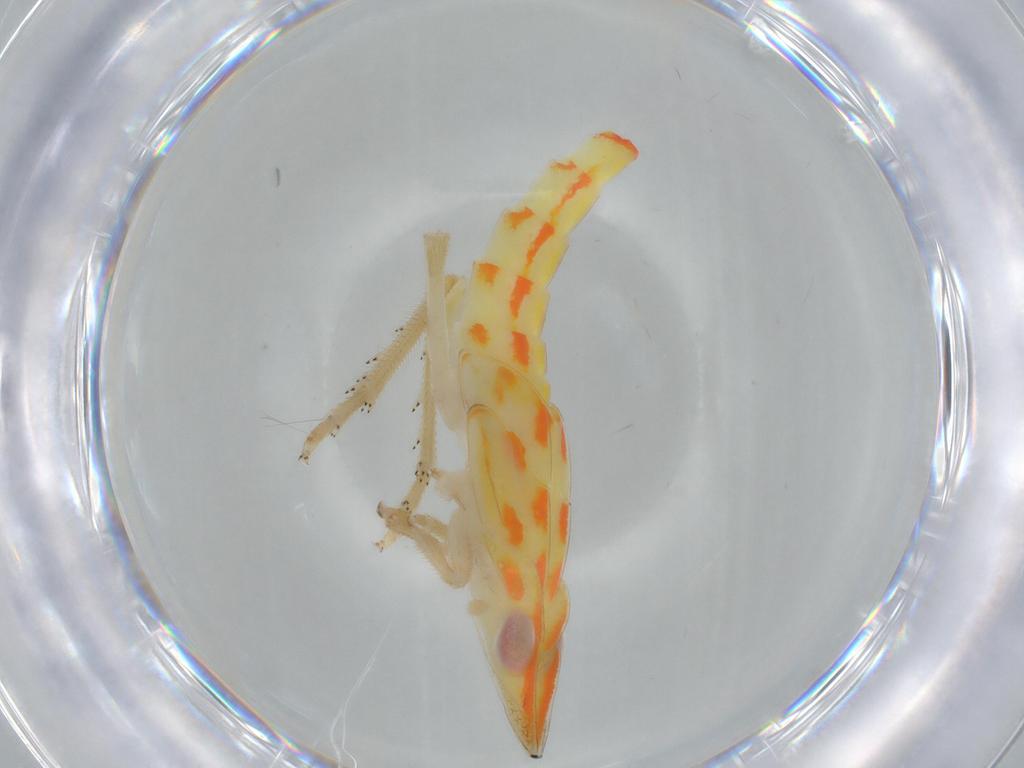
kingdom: Animalia
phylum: Arthropoda
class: Insecta
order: Hemiptera
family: Tropiduchidae
